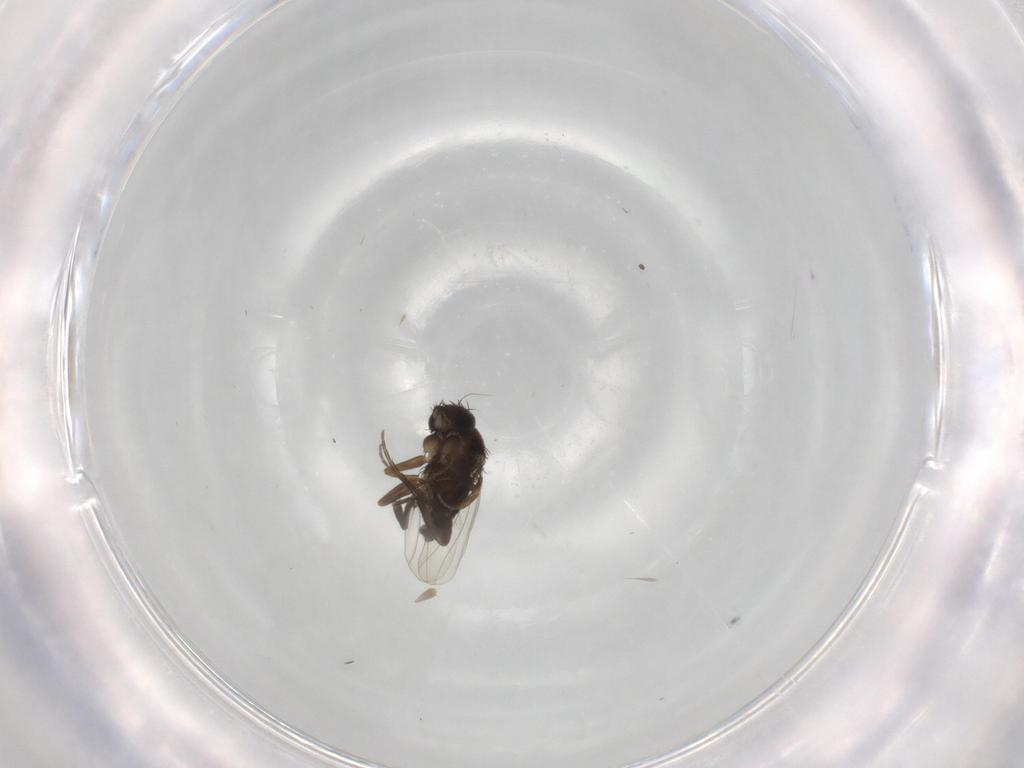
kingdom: Animalia
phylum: Arthropoda
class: Insecta
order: Diptera
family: Phoridae
